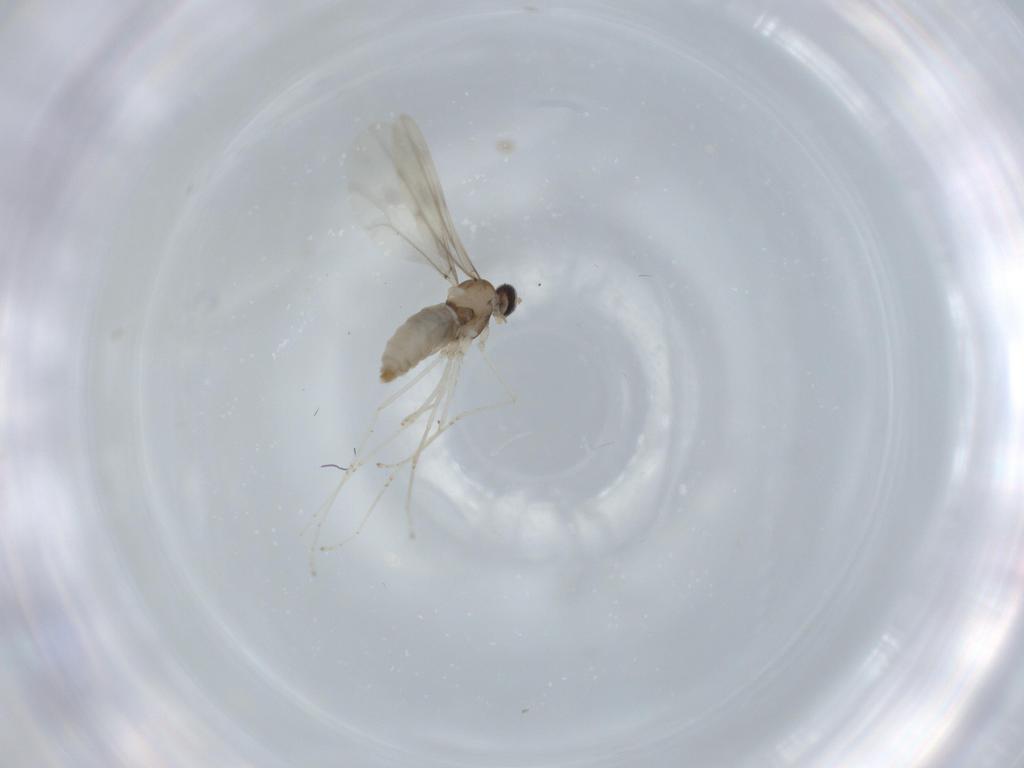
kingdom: Animalia
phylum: Arthropoda
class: Insecta
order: Diptera
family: Cecidomyiidae
